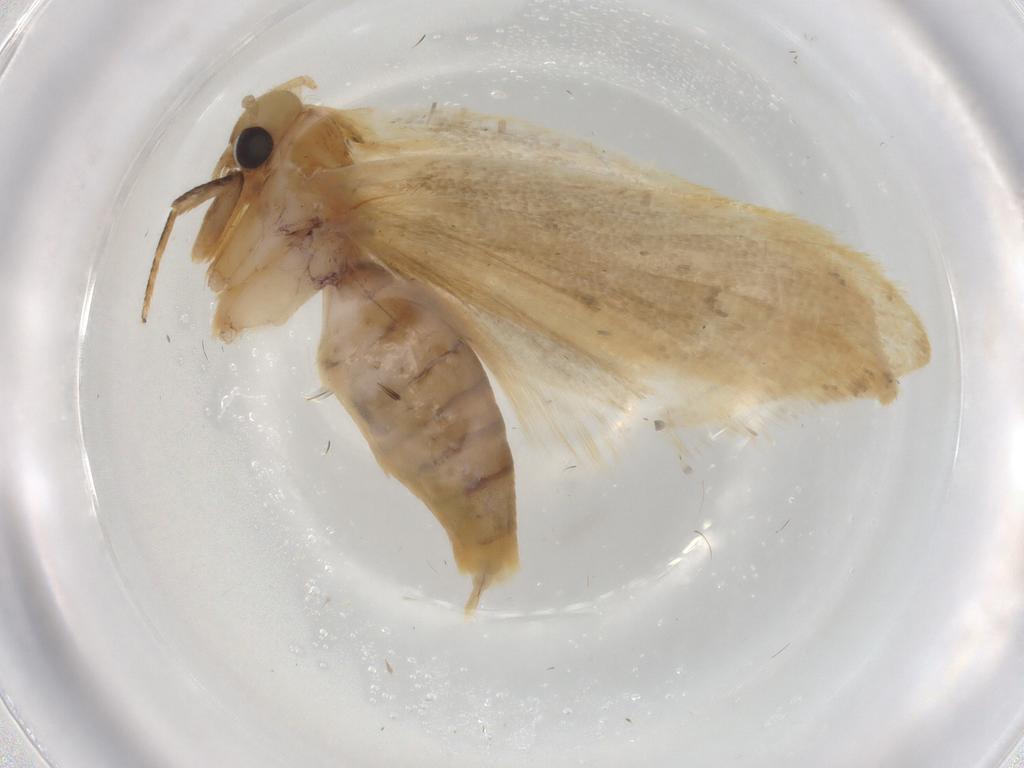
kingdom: Animalia
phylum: Arthropoda
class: Insecta
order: Lepidoptera
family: Depressariidae
